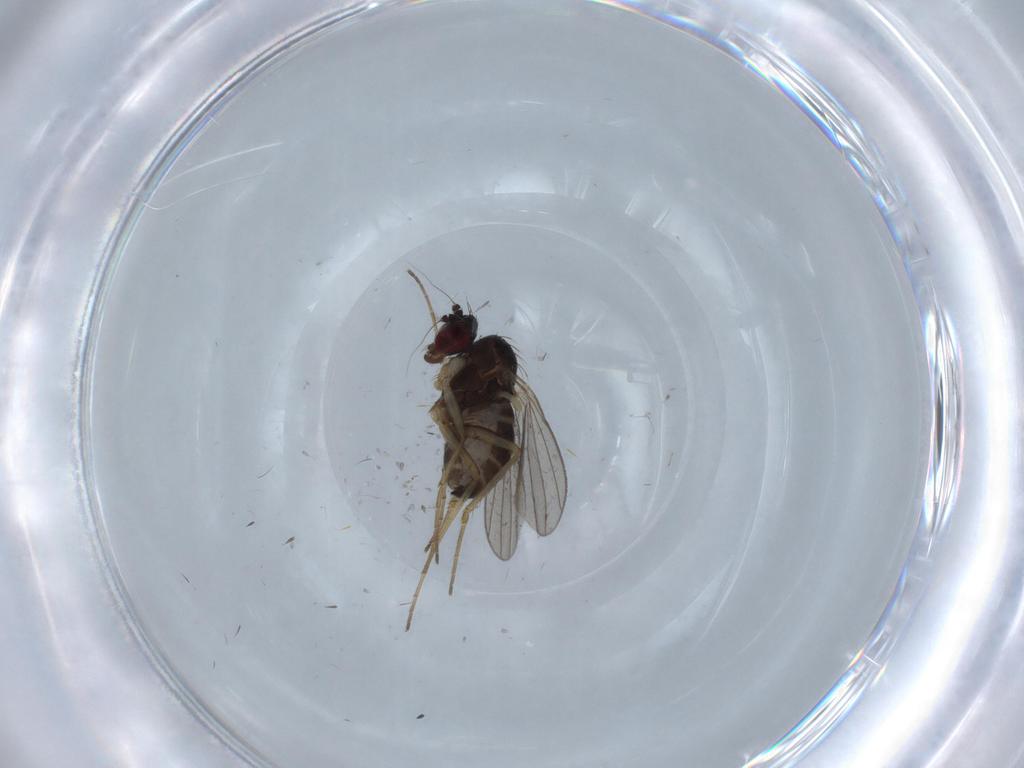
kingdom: Animalia
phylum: Arthropoda
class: Insecta
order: Diptera
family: Dolichopodidae
